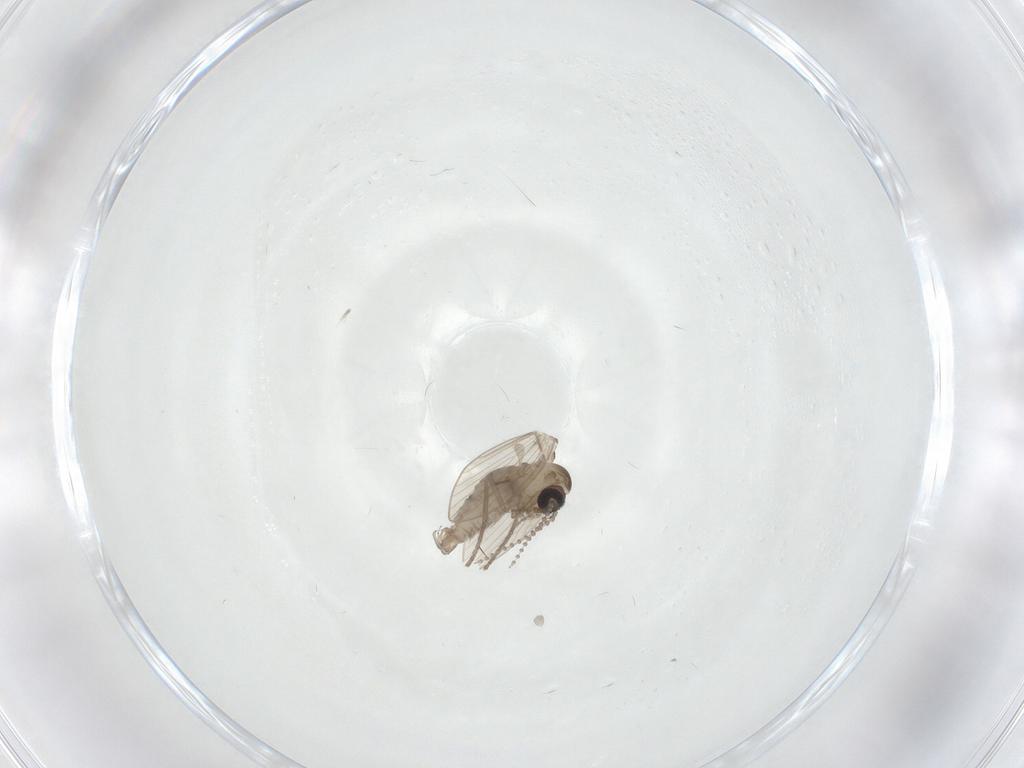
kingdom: Animalia
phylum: Arthropoda
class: Insecta
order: Diptera
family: Psychodidae
